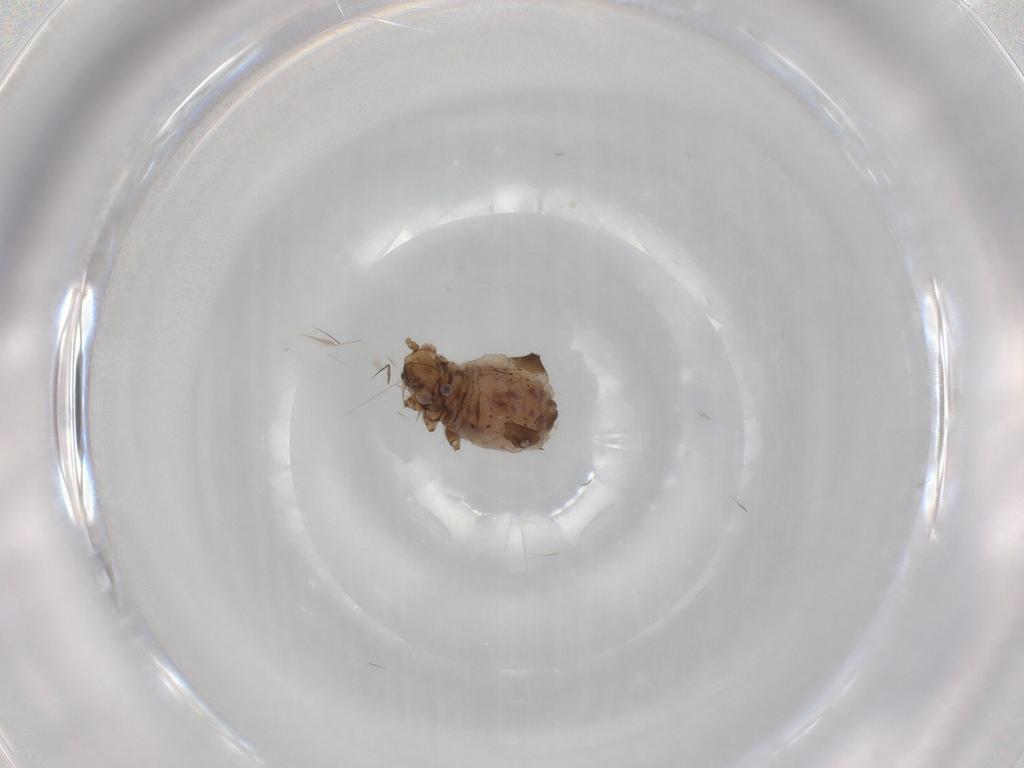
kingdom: Animalia
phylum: Arthropoda
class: Insecta
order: Hemiptera
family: Aphididae
